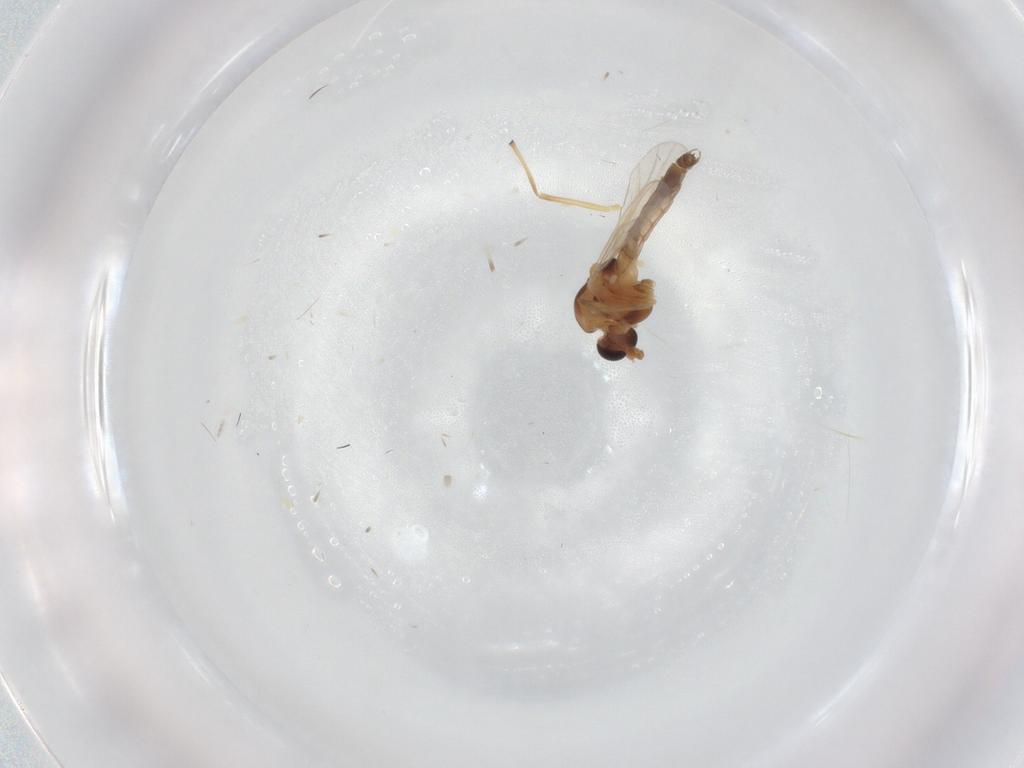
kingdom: Animalia
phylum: Arthropoda
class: Insecta
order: Diptera
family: Chironomidae
